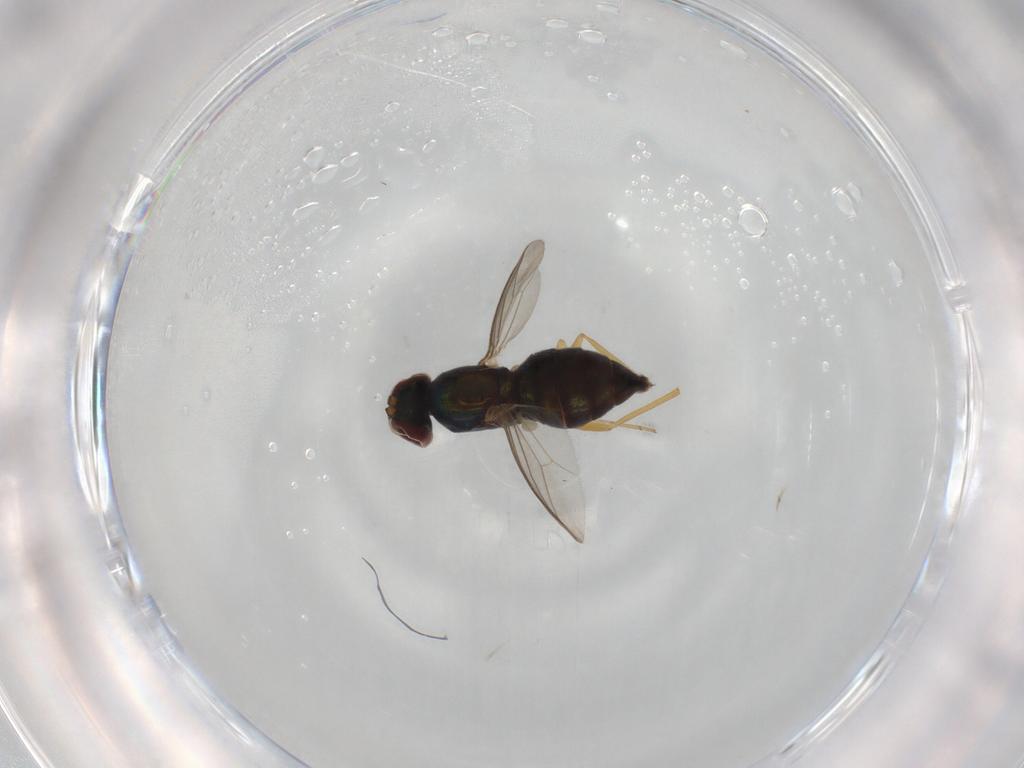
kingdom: Animalia
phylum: Arthropoda
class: Insecta
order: Diptera
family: Dolichopodidae
